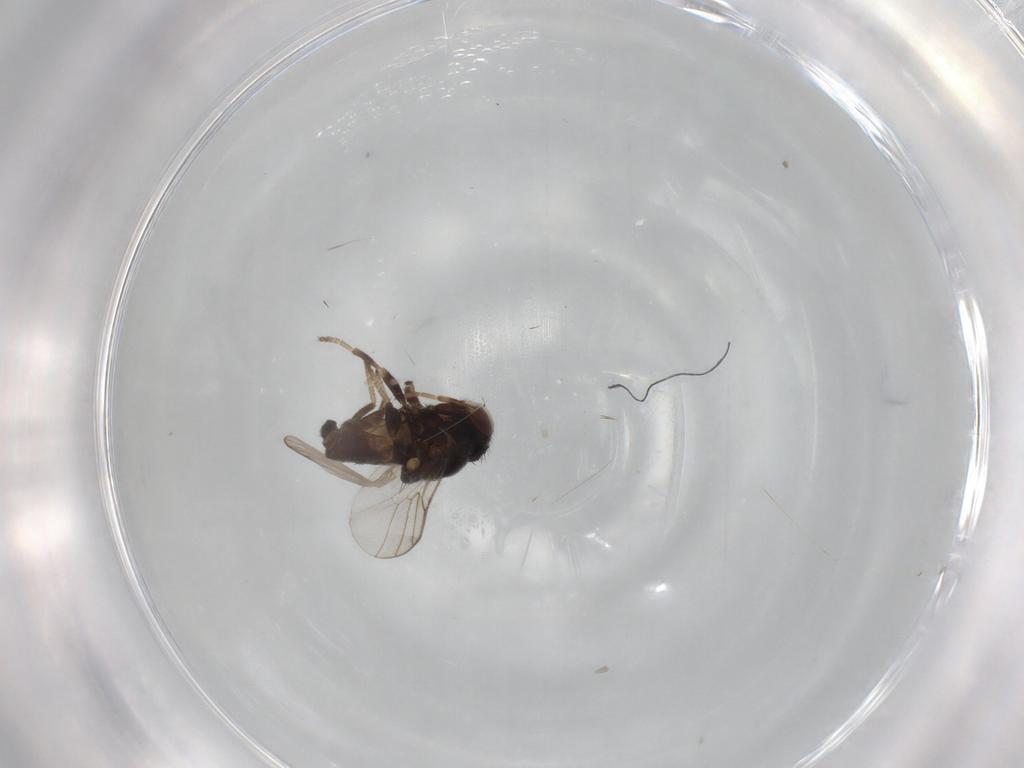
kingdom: Animalia
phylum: Arthropoda
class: Insecta
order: Diptera
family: Chloropidae
